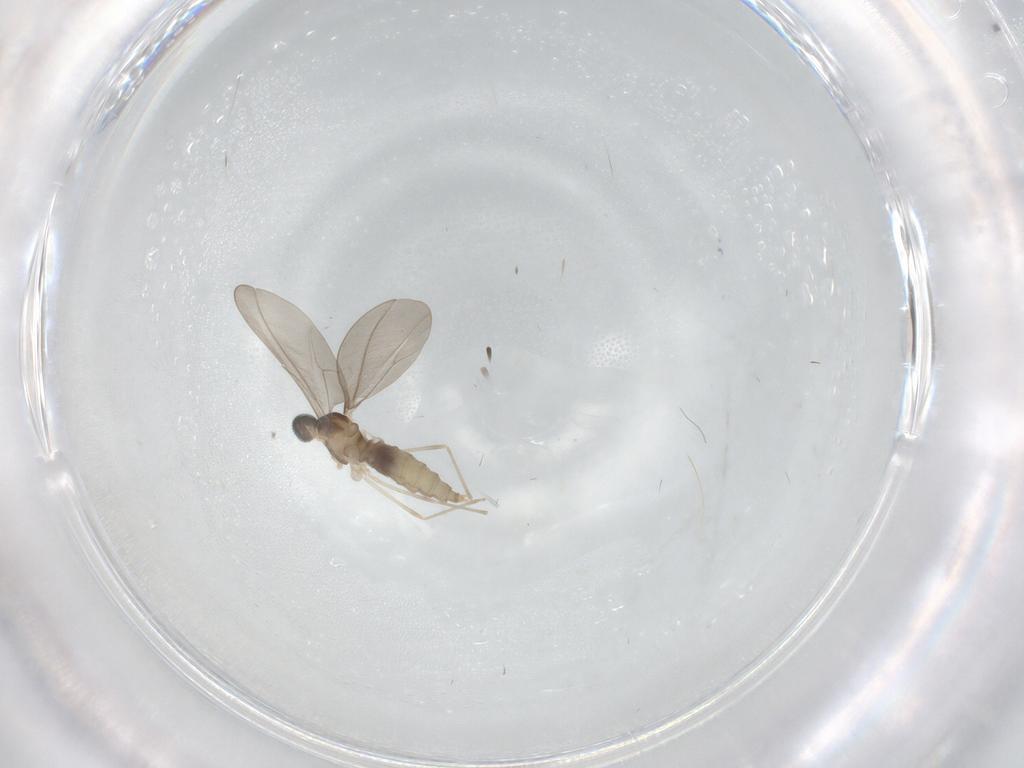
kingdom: Animalia
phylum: Arthropoda
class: Insecta
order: Diptera
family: Cecidomyiidae
